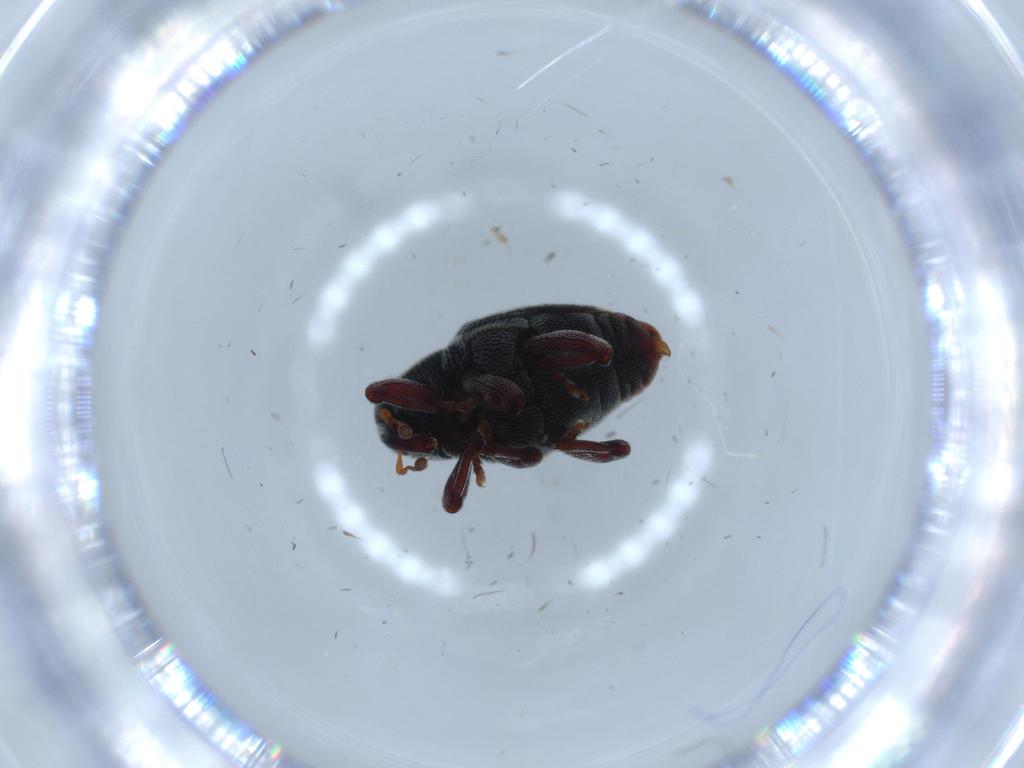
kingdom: Animalia
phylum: Arthropoda
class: Insecta
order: Coleoptera
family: Curculionidae
